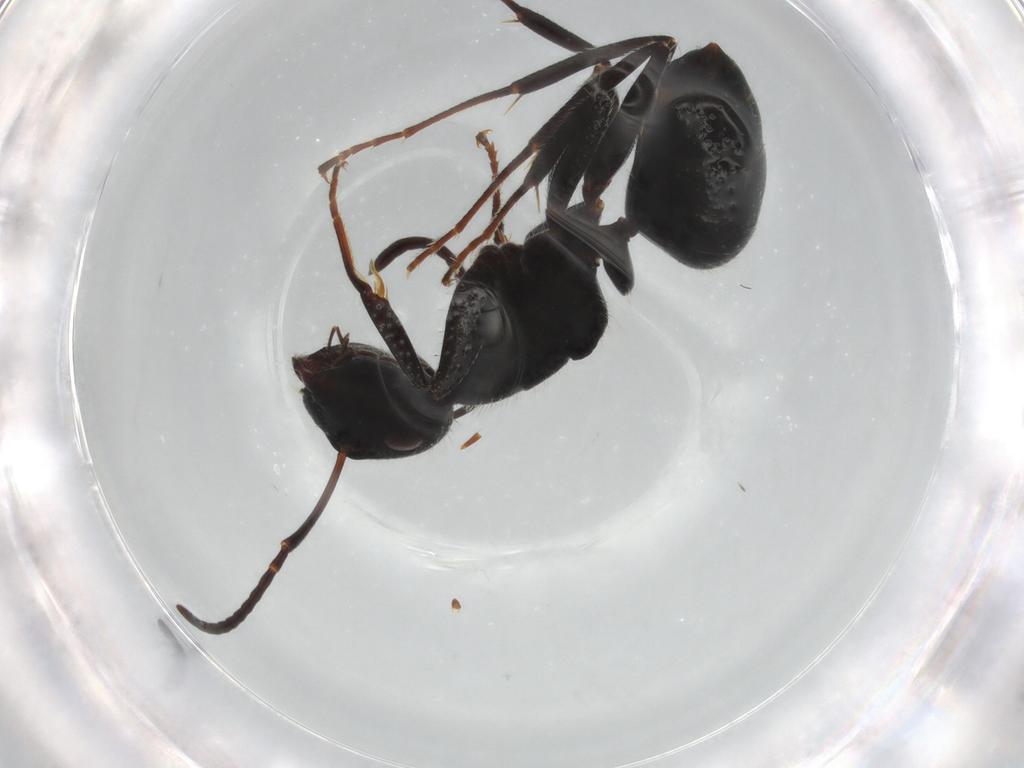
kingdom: Animalia
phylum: Arthropoda
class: Insecta
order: Hymenoptera
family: Formicidae
